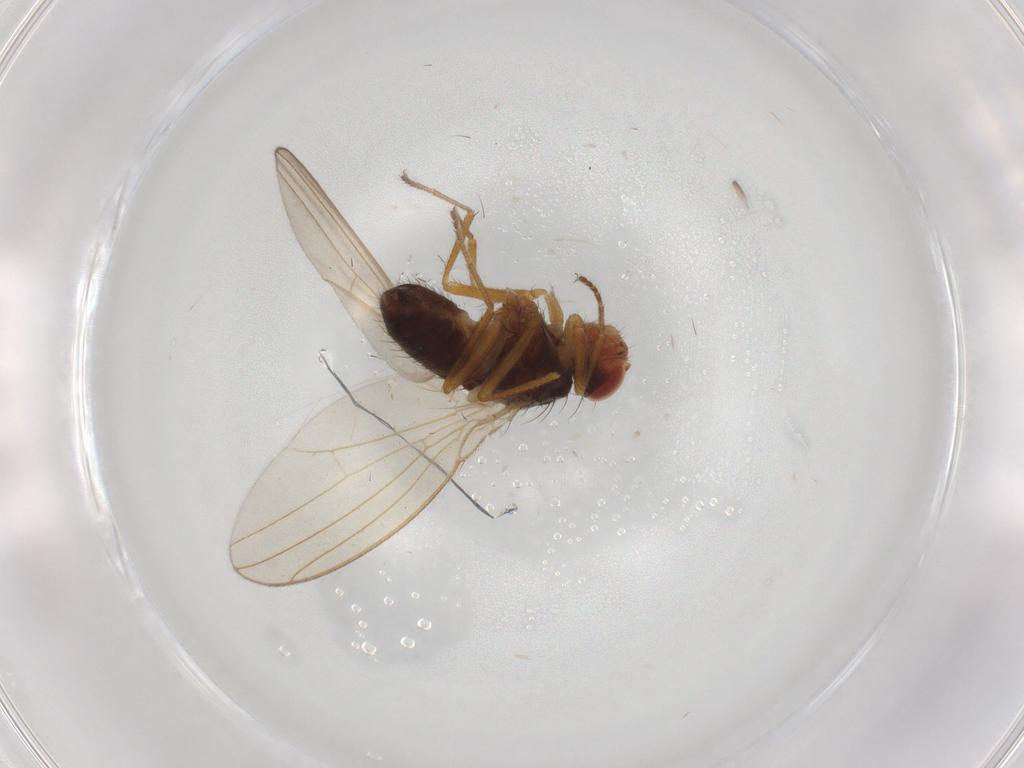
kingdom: Animalia
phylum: Arthropoda
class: Insecta
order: Diptera
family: Drosophilidae
